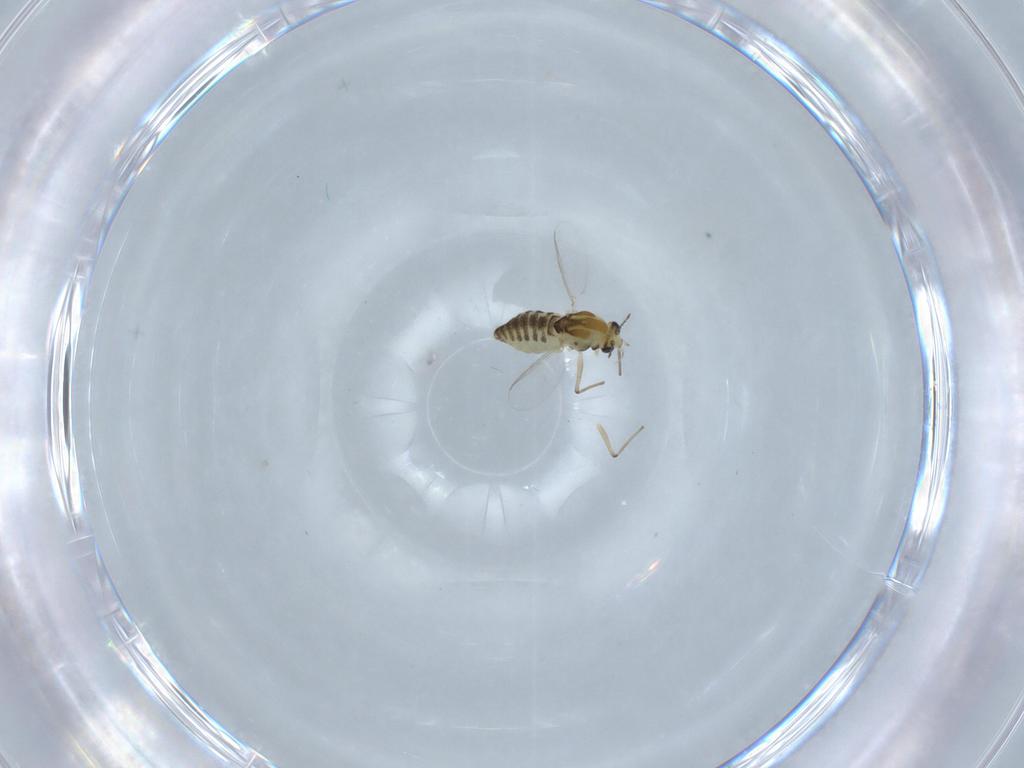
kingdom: Animalia
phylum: Arthropoda
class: Insecta
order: Diptera
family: Chironomidae
